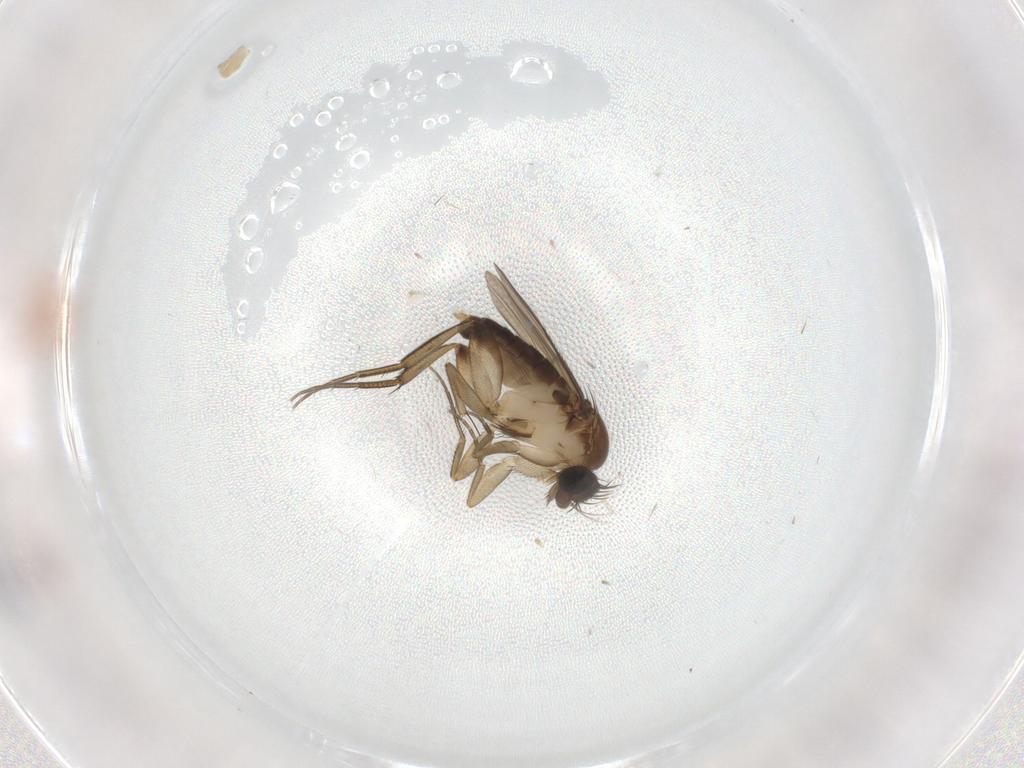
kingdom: Animalia
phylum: Arthropoda
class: Insecta
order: Diptera
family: Phoridae
